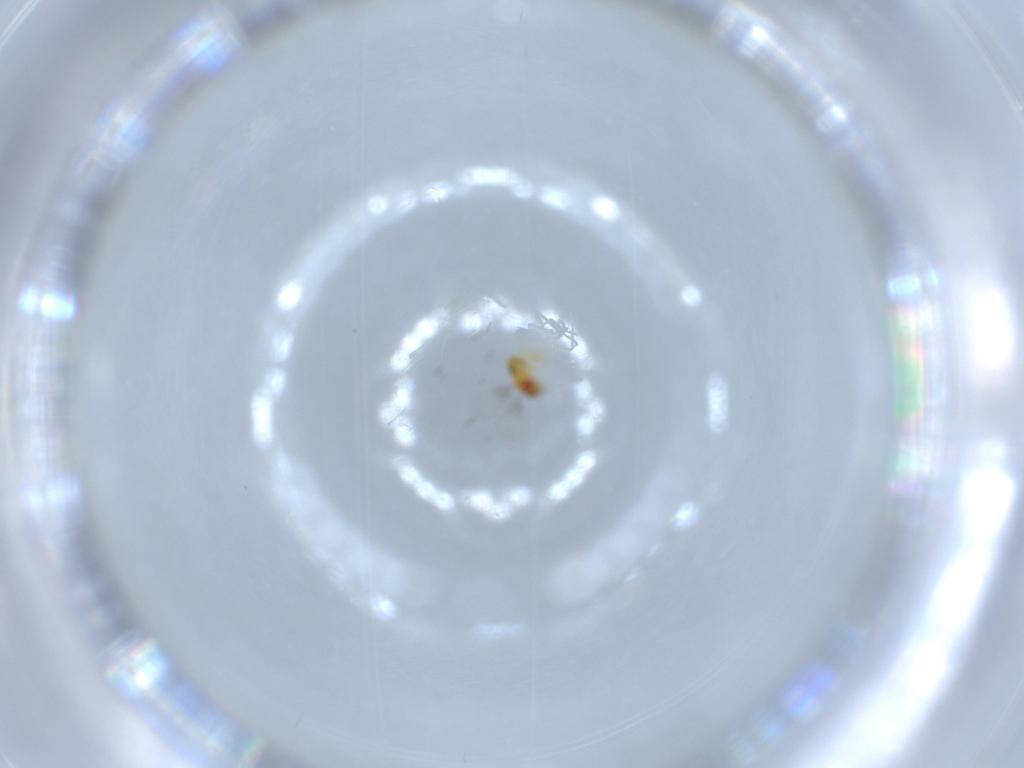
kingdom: Animalia
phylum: Arthropoda
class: Insecta
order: Hymenoptera
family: Trichogrammatidae
